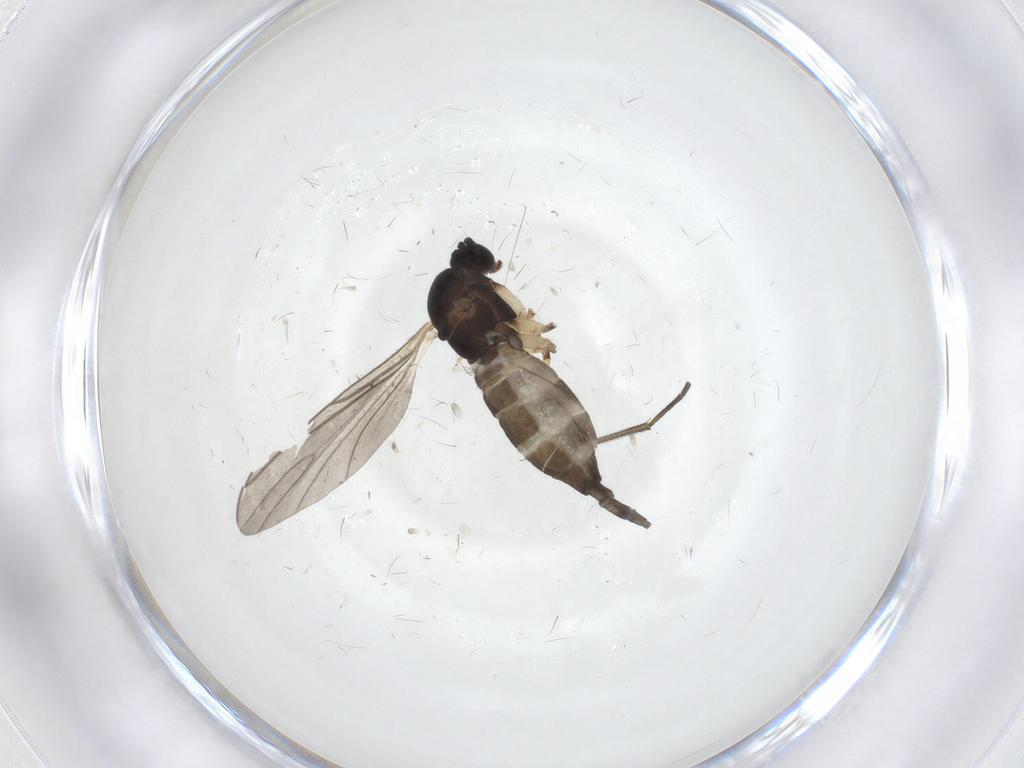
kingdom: Animalia
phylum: Arthropoda
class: Insecta
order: Diptera
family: Sciaridae
